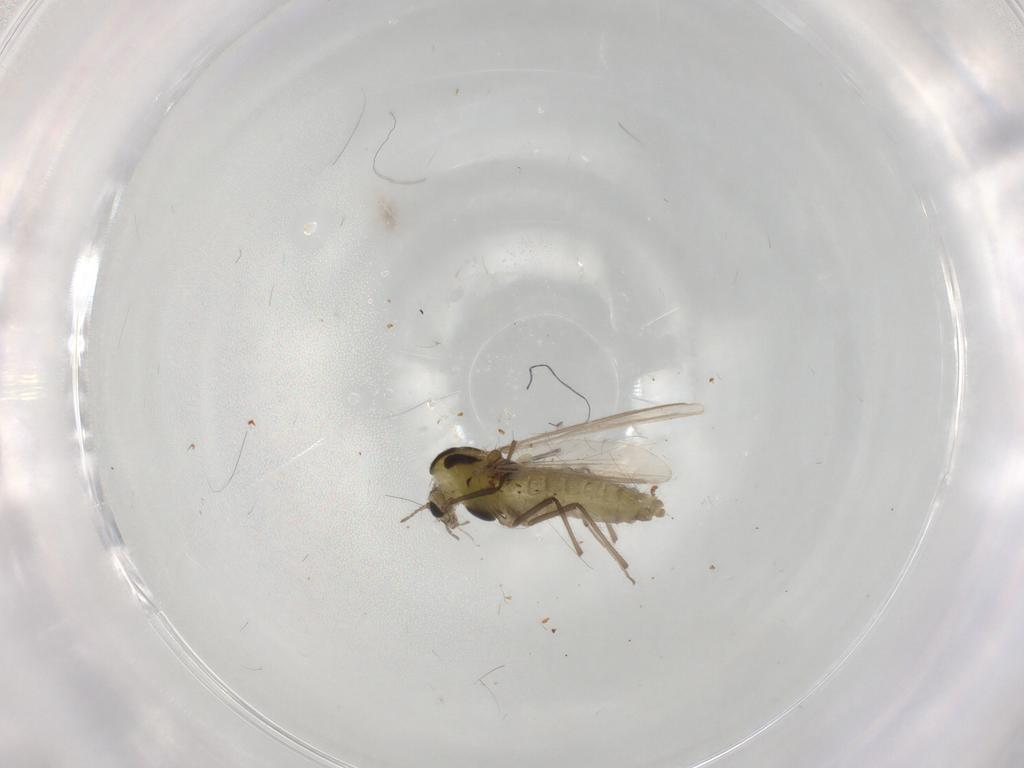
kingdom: Animalia
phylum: Arthropoda
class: Insecta
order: Diptera
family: Chironomidae
